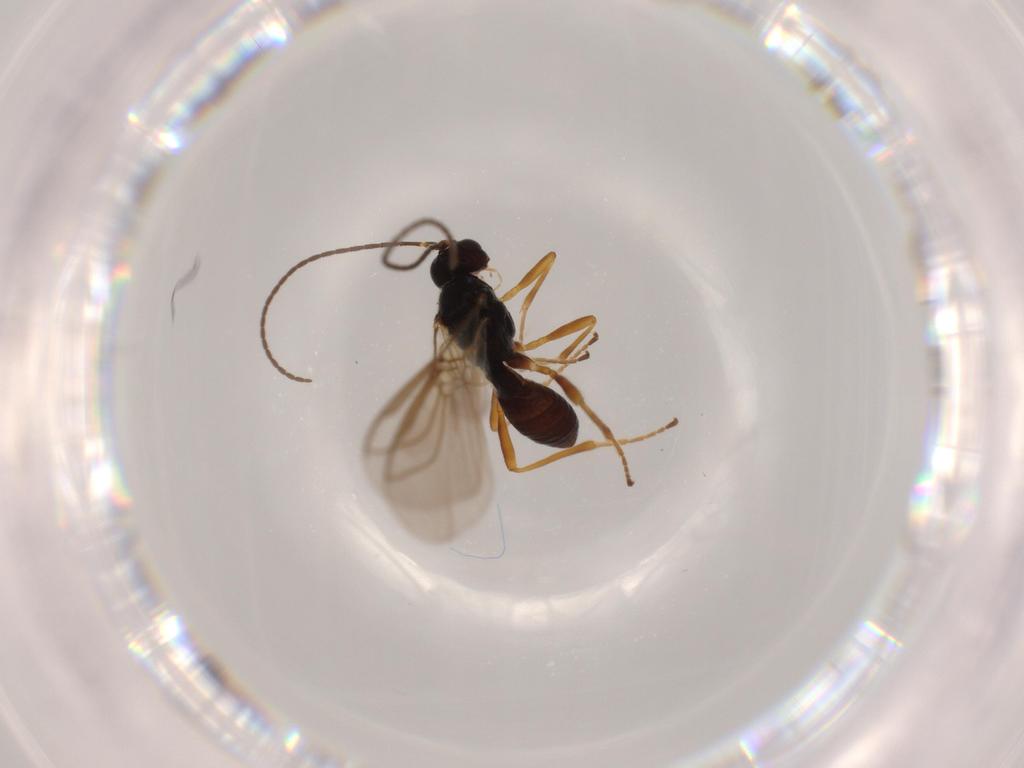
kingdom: Animalia
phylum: Arthropoda
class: Insecta
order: Hymenoptera
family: Braconidae
